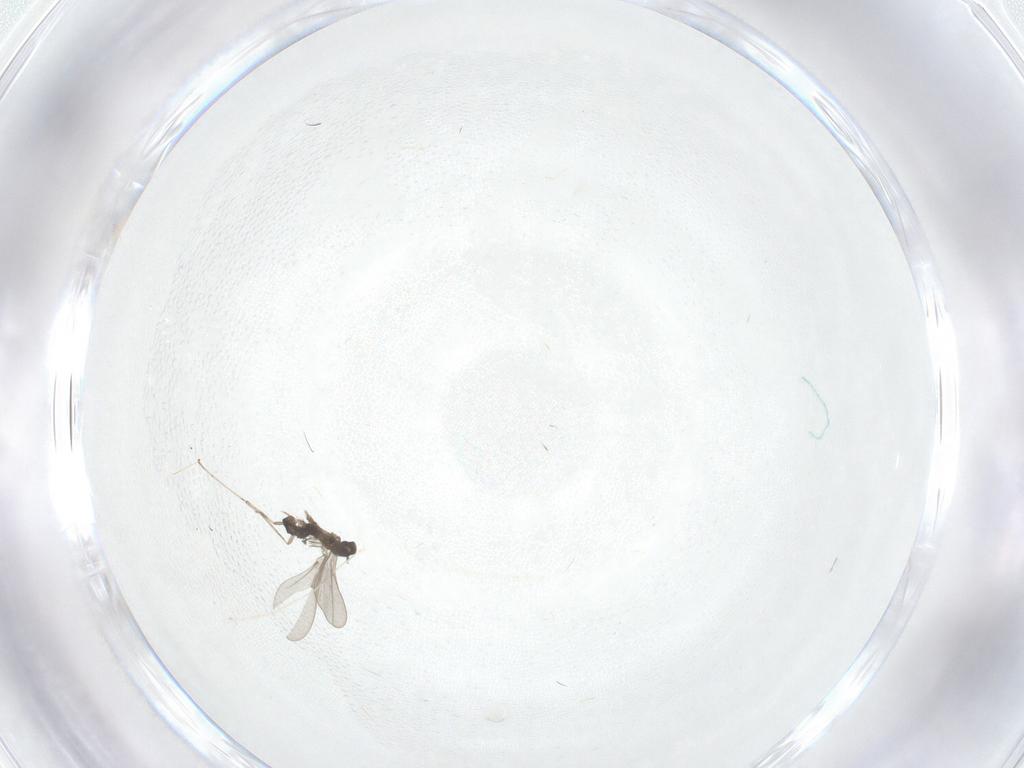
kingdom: Animalia
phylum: Arthropoda
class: Insecta
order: Diptera
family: Cecidomyiidae
